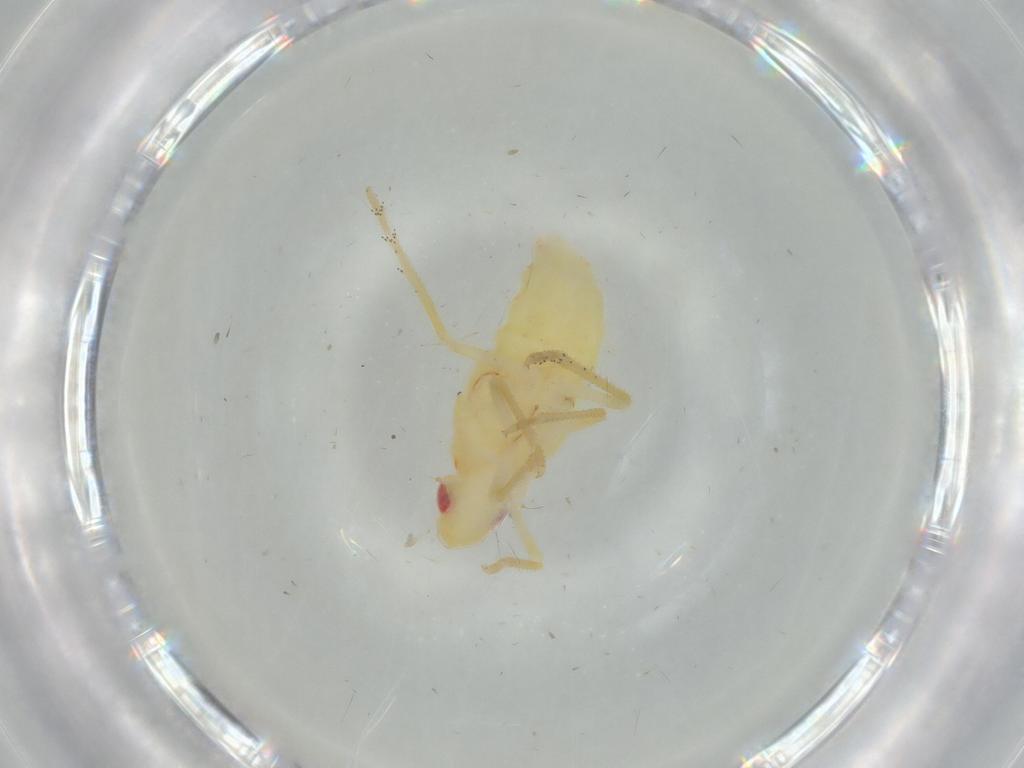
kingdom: Animalia
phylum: Arthropoda
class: Insecta
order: Hemiptera
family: Tropiduchidae
